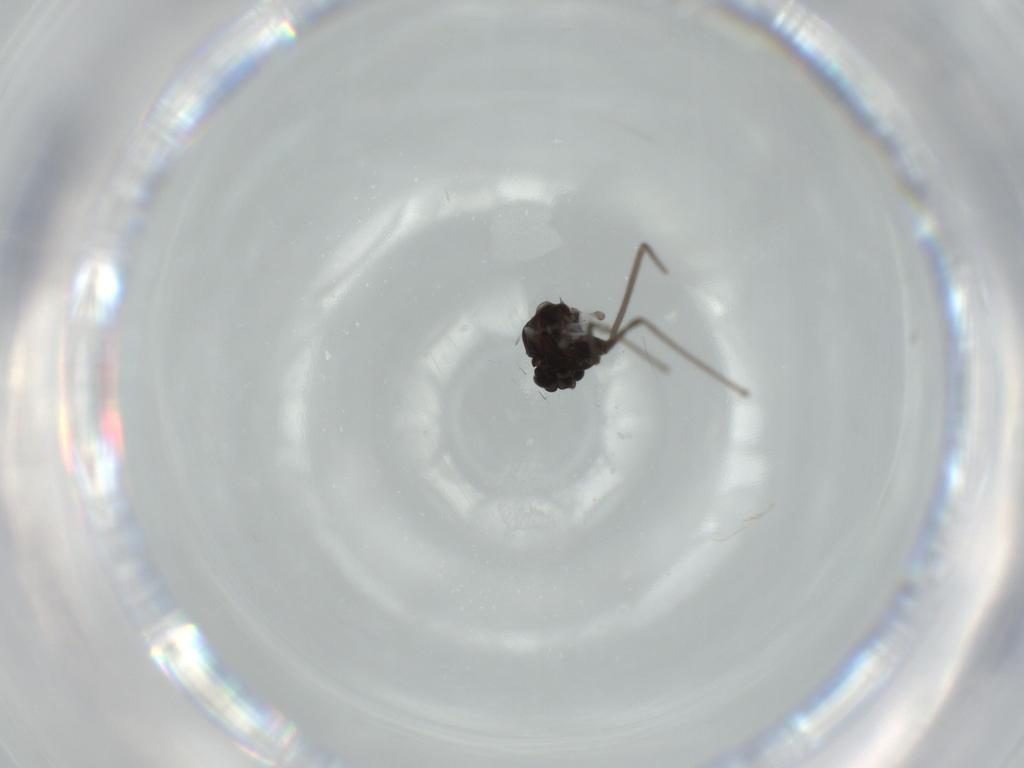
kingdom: Animalia
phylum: Arthropoda
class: Insecta
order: Diptera
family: Chironomidae
